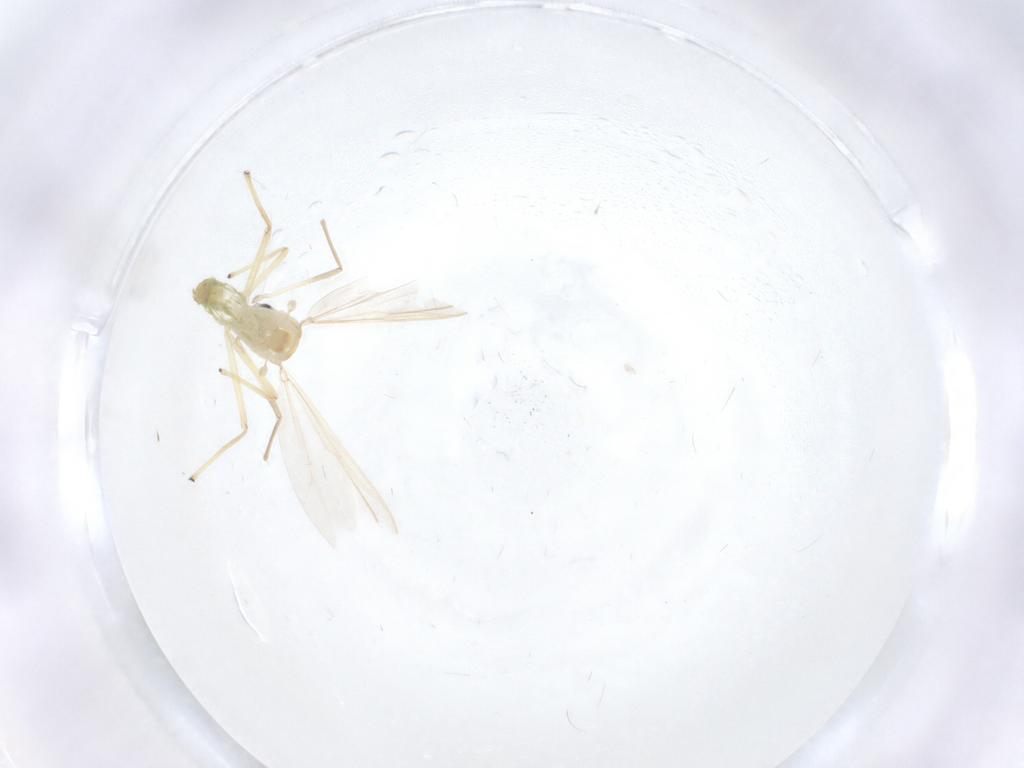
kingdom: Animalia
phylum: Arthropoda
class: Insecta
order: Diptera
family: Chironomidae
